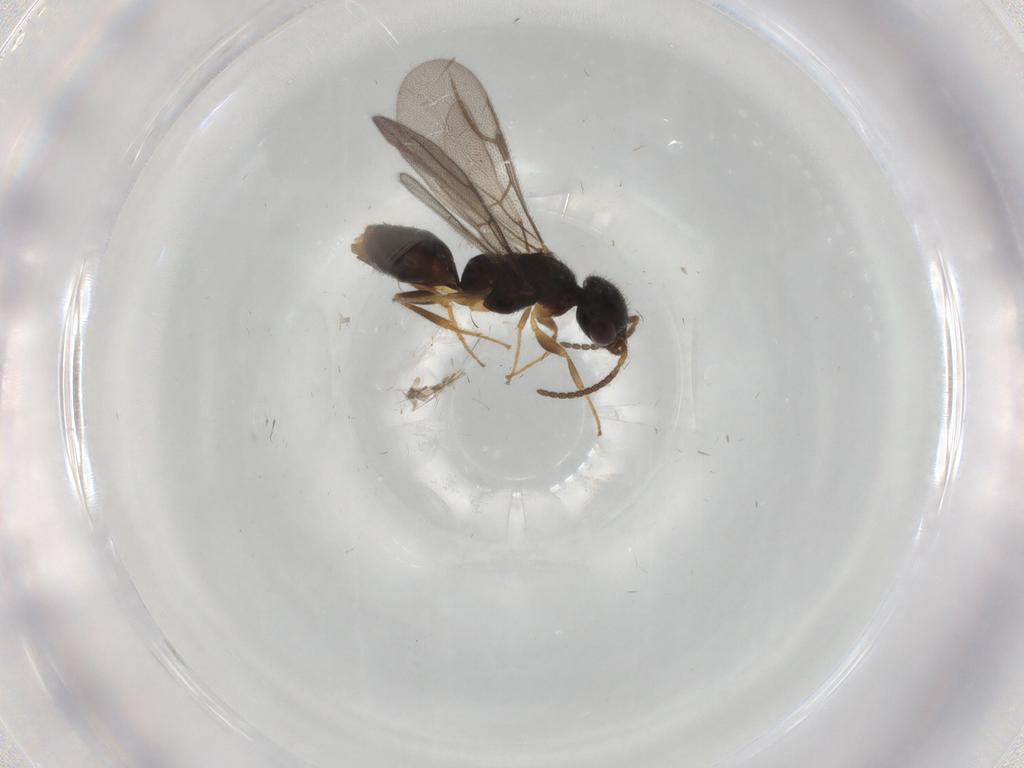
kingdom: Animalia
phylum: Arthropoda
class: Insecta
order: Hymenoptera
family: Bethylidae
